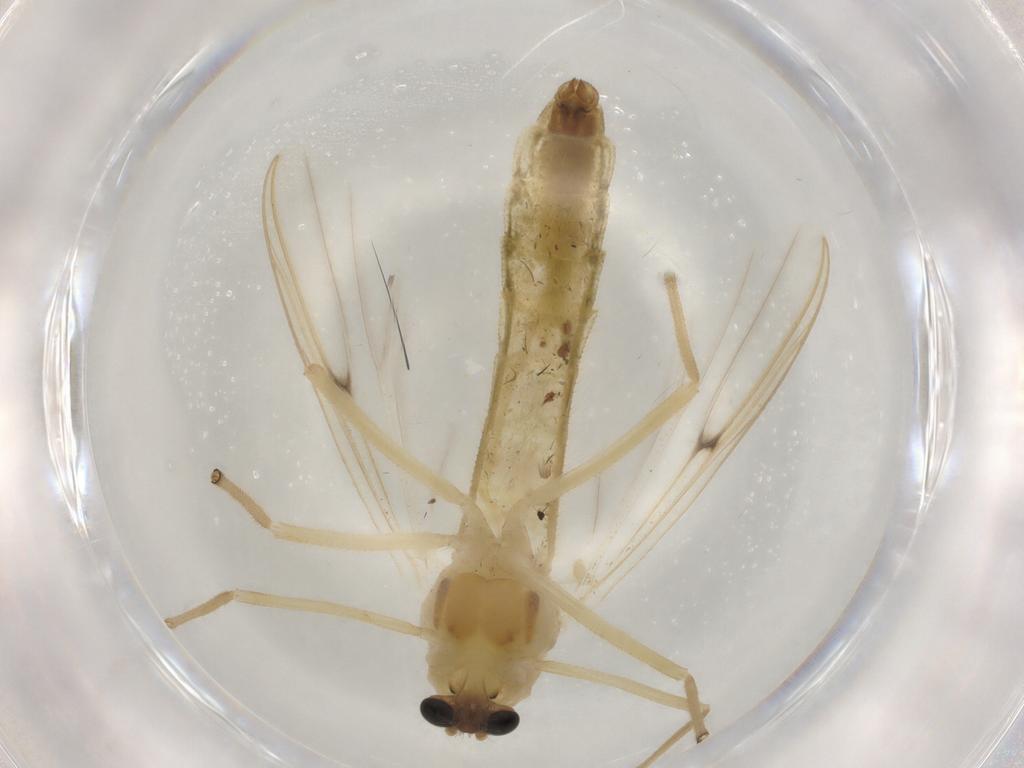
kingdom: Animalia
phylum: Arthropoda
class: Insecta
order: Diptera
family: Chironomidae
